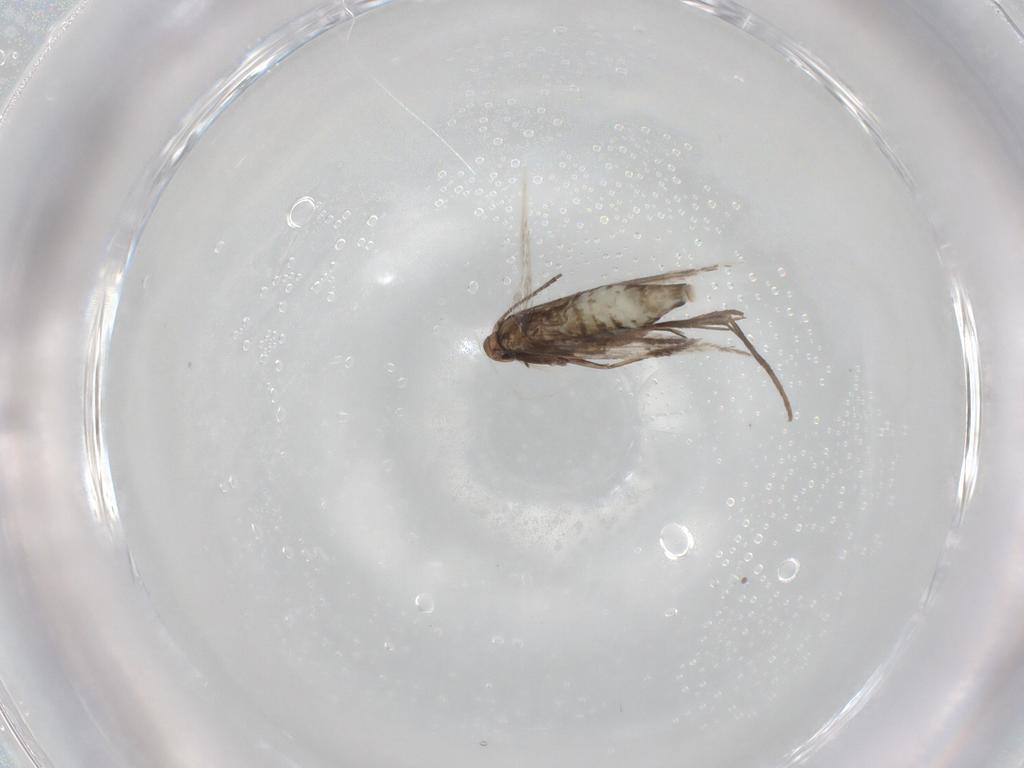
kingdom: Animalia
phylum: Arthropoda
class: Insecta
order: Lepidoptera
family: Gracillariidae
